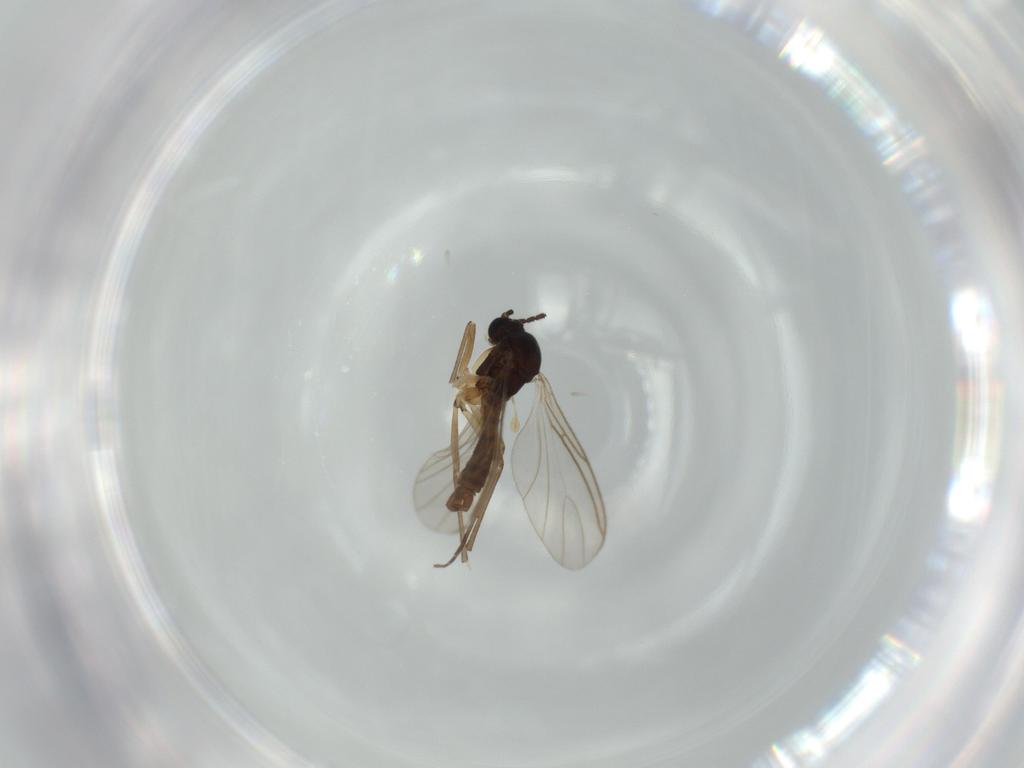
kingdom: Animalia
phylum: Arthropoda
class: Insecta
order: Diptera
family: Sciaridae
